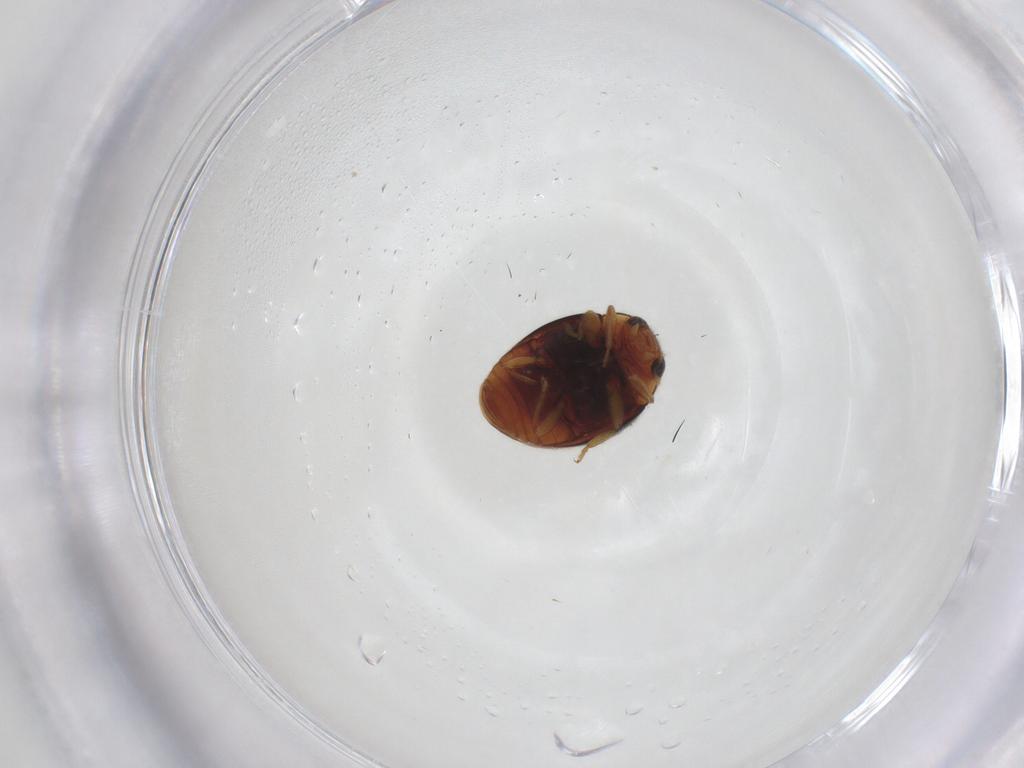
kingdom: Animalia
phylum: Arthropoda
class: Insecta
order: Coleoptera
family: Coccinellidae
